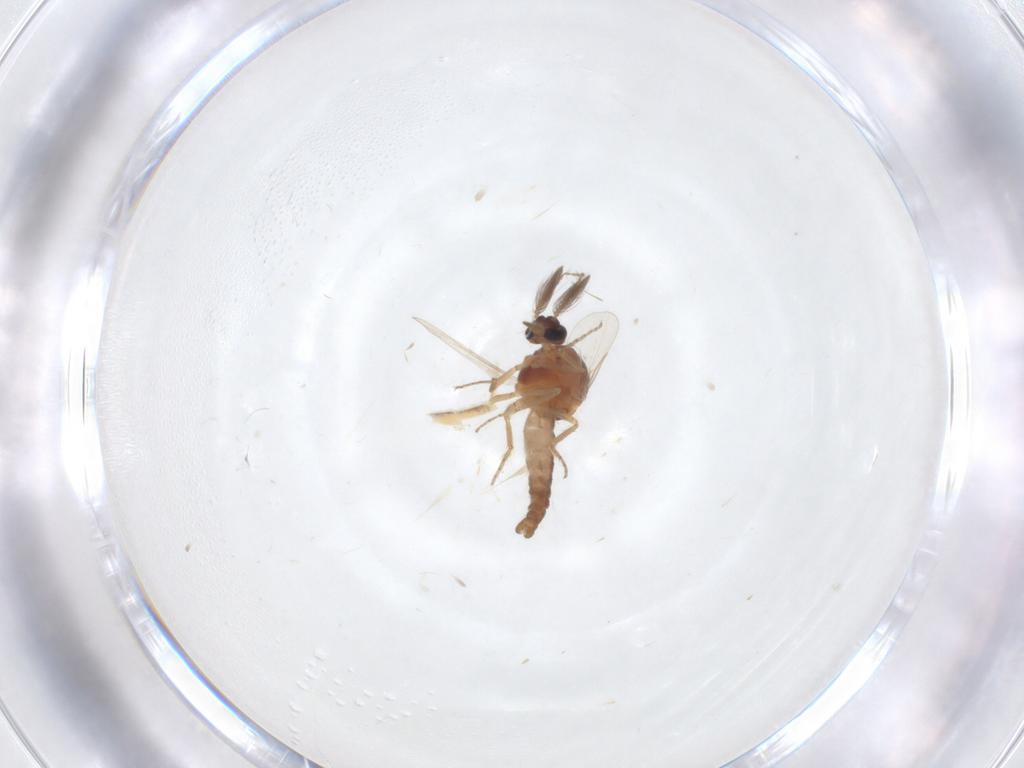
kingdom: Animalia
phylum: Arthropoda
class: Insecta
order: Diptera
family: Ceratopogonidae
